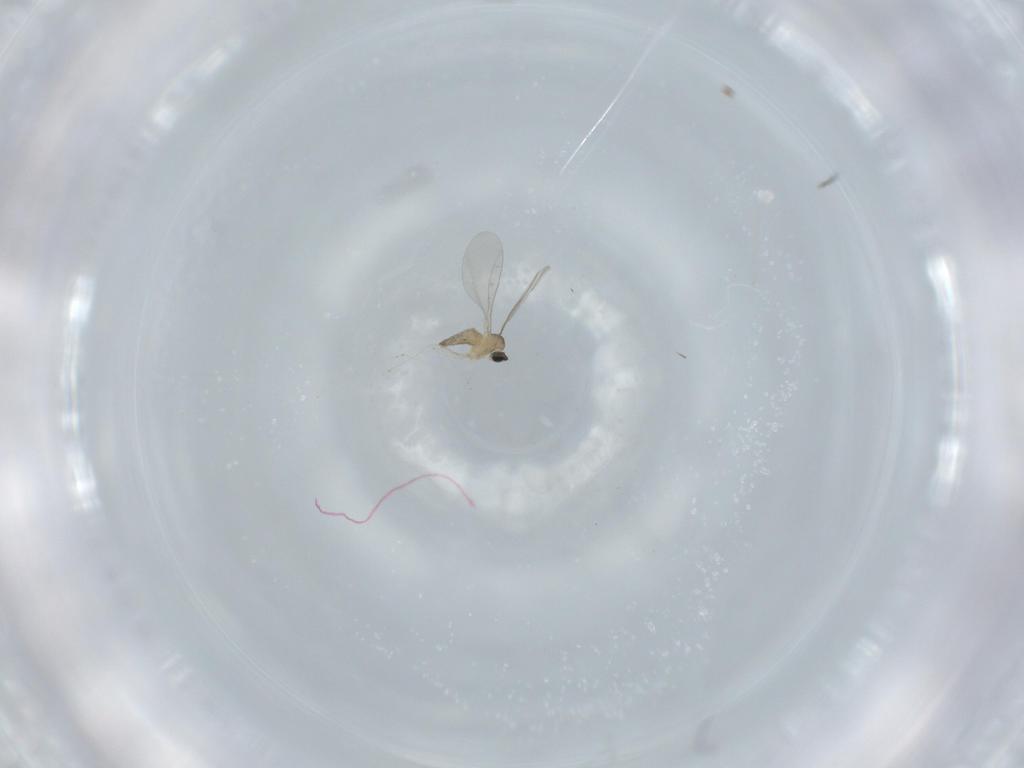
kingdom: Animalia
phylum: Arthropoda
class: Insecta
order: Diptera
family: Cecidomyiidae
